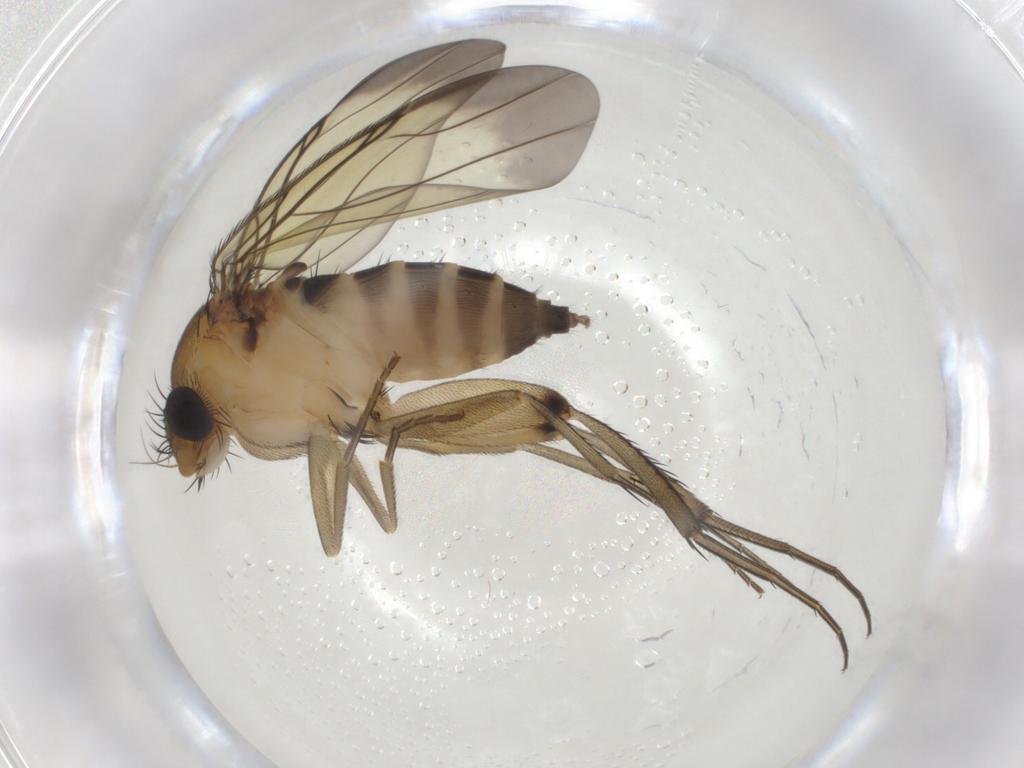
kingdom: Animalia
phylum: Arthropoda
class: Insecta
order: Diptera
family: Phoridae
